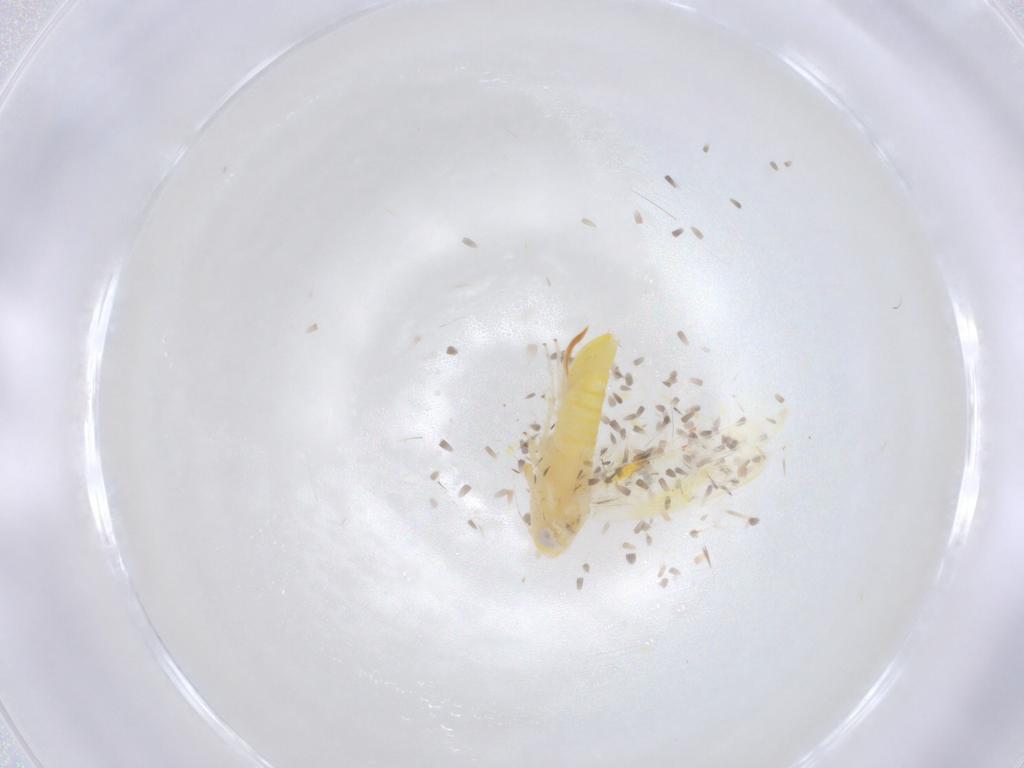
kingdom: Animalia
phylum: Arthropoda
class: Insecta
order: Hemiptera
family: Cicadellidae
